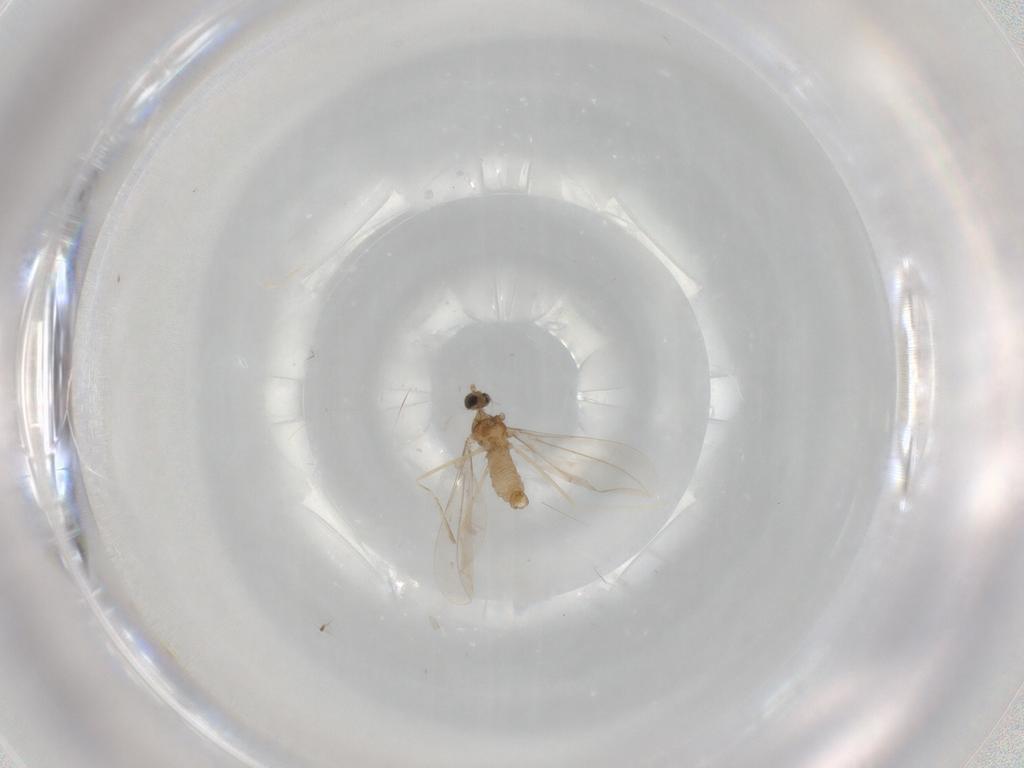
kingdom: Animalia
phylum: Arthropoda
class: Insecta
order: Diptera
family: Cecidomyiidae
